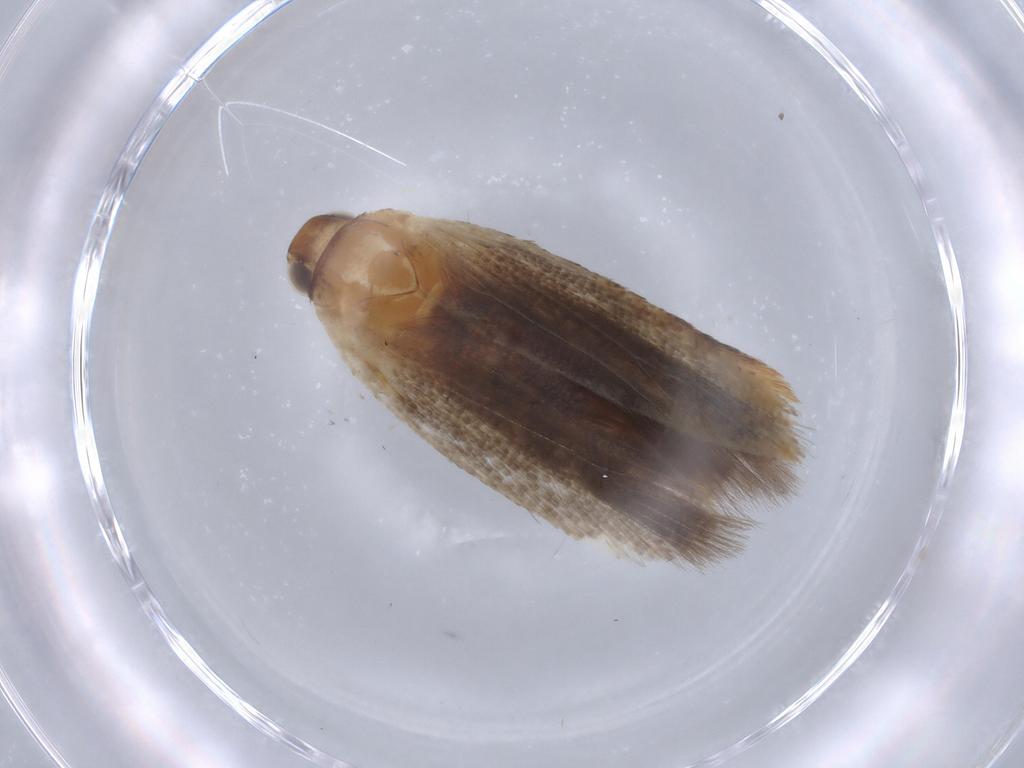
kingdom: Animalia
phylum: Arthropoda
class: Insecta
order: Lepidoptera
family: Gelechiidae
